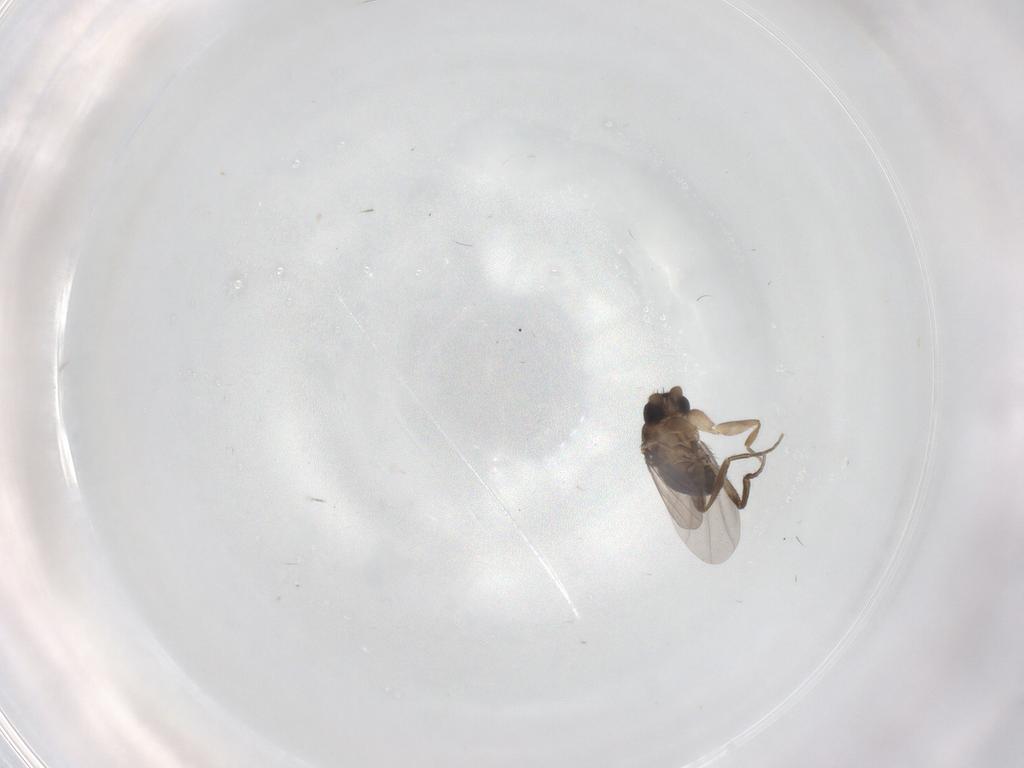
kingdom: Animalia
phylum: Arthropoda
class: Insecta
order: Diptera
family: Phoridae
